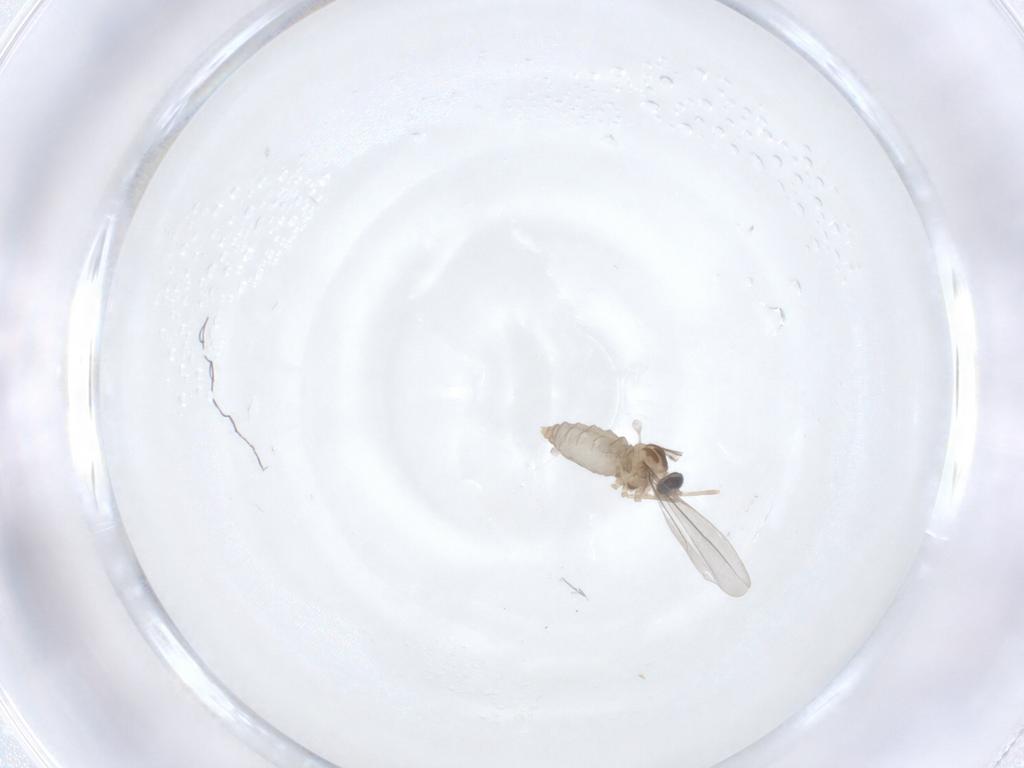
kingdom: Animalia
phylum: Arthropoda
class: Insecta
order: Diptera
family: Cecidomyiidae
